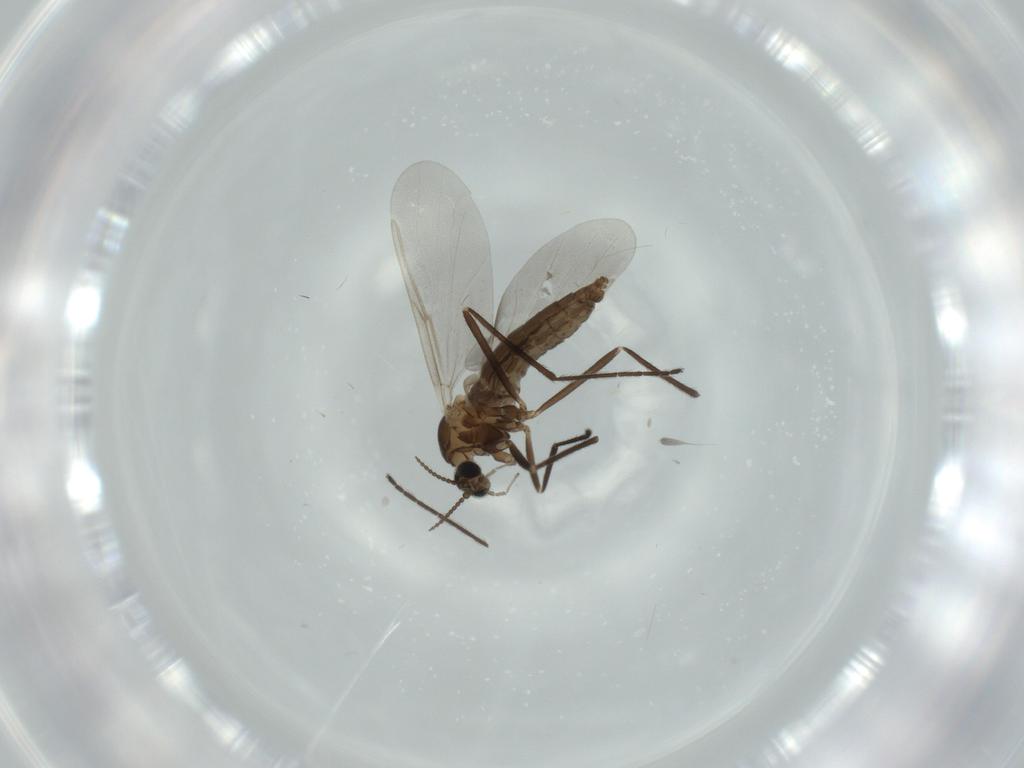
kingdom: Animalia
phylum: Arthropoda
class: Insecta
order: Diptera
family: Cecidomyiidae
